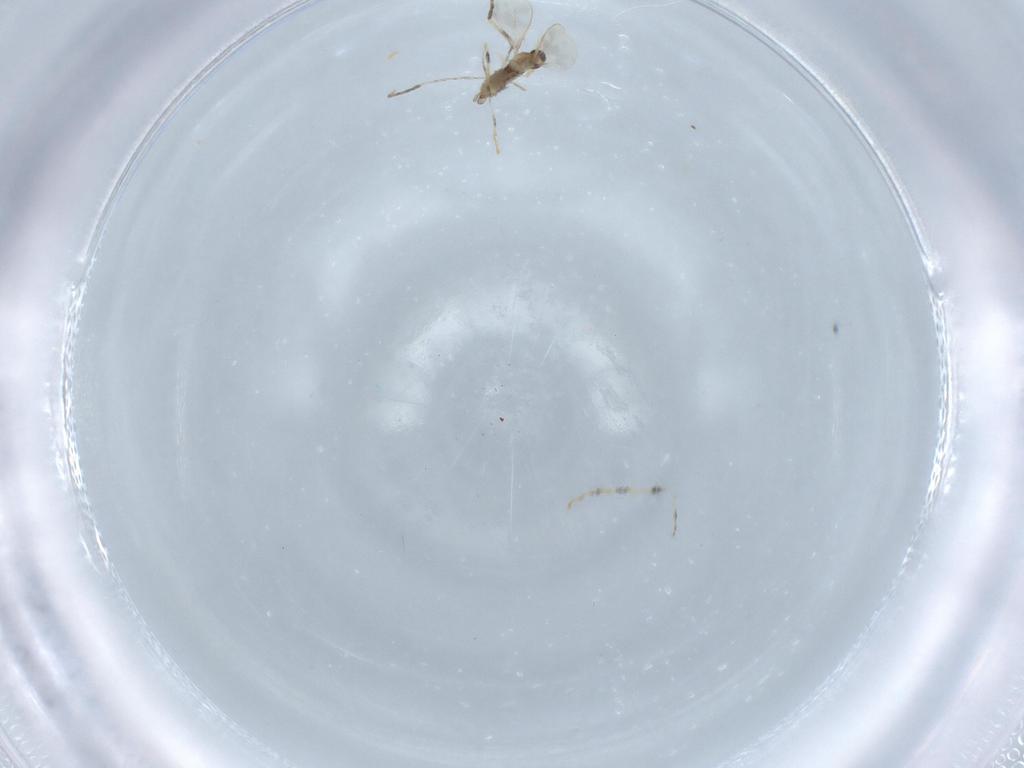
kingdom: Animalia
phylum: Arthropoda
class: Insecta
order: Diptera
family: Cecidomyiidae
